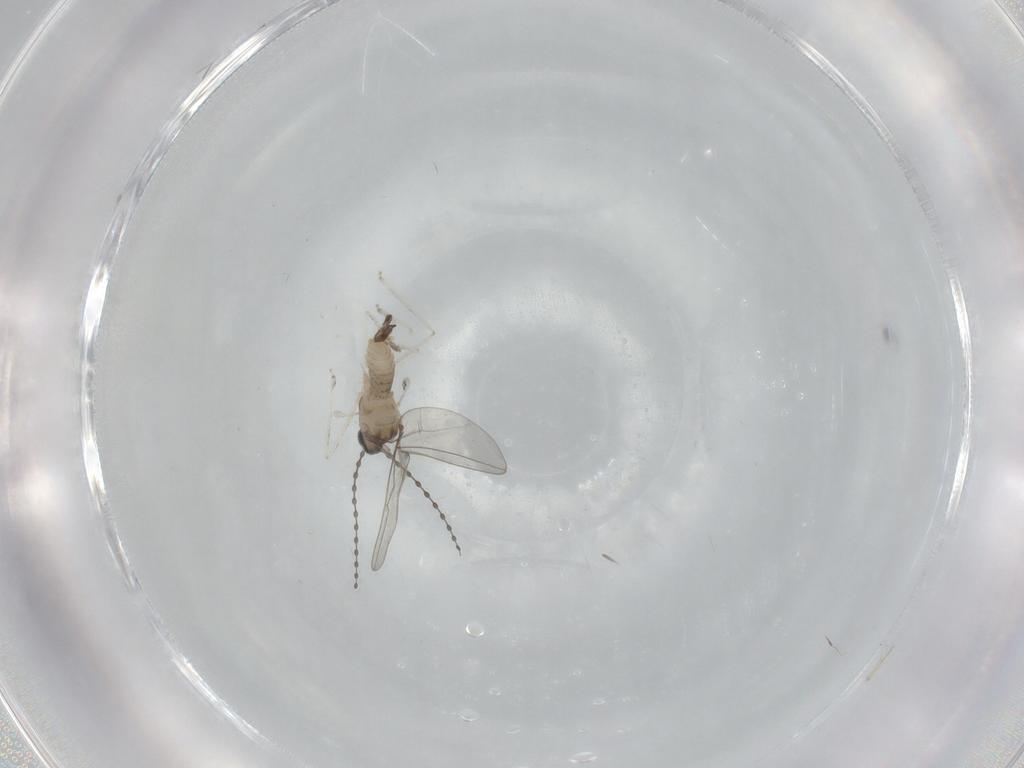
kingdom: Animalia
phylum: Arthropoda
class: Insecta
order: Diptera
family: Cecidomyiidae
